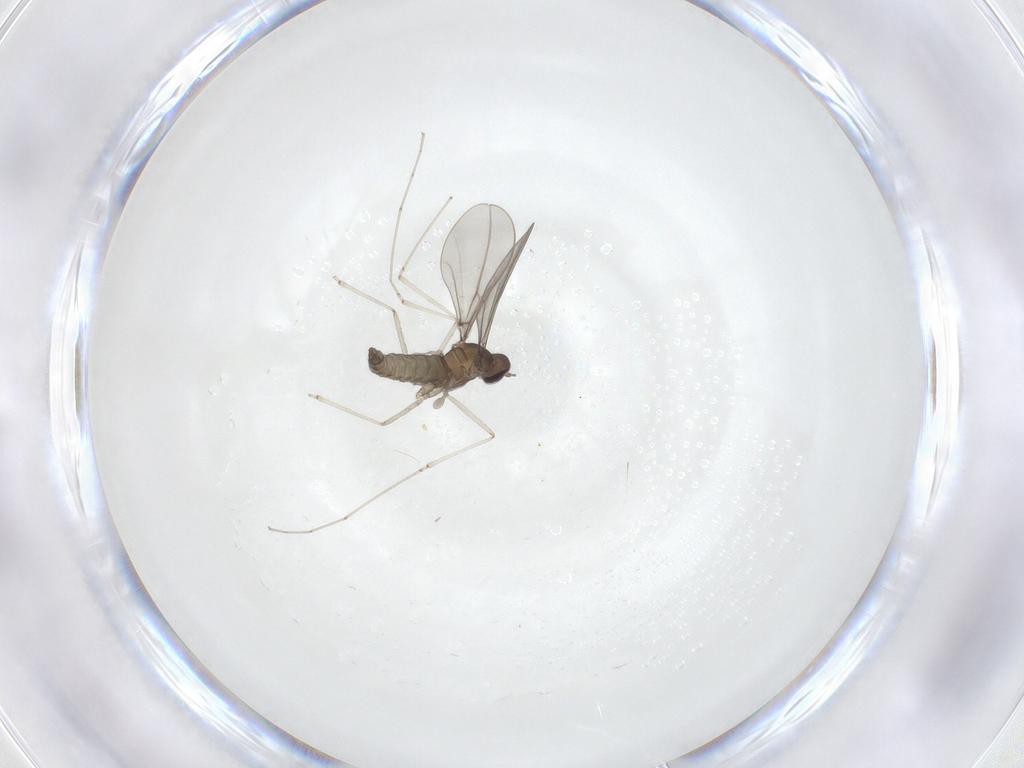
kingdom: Animalia
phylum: Arthropoda
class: Insecta
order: Diptera
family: Cecidomyiidae
